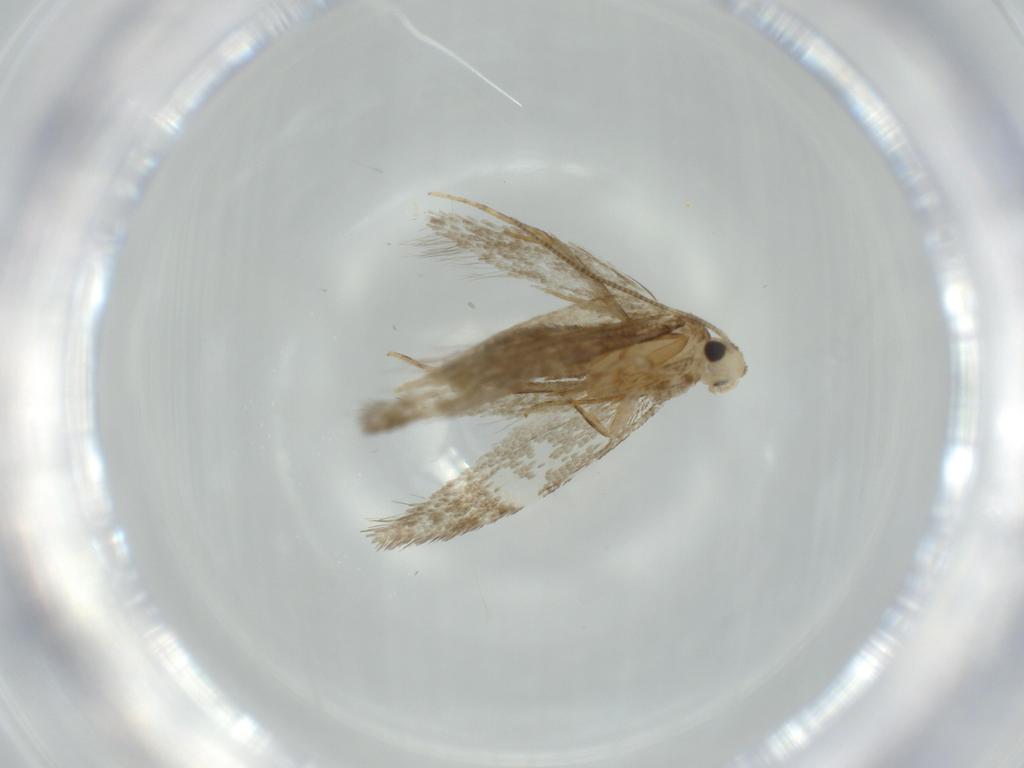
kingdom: Animalia
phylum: Arthropoda
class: Insecta
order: Lepidoptera
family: Tineidae
